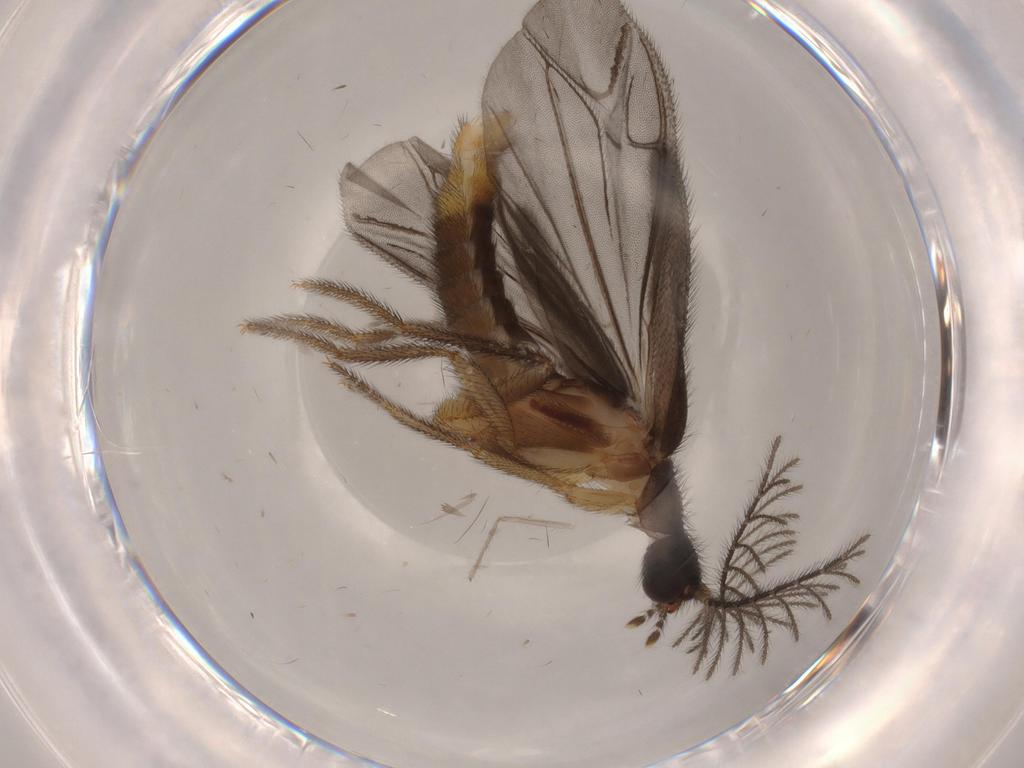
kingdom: Animalia
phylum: Arthropoda
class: Insecta
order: Coleoptera
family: Phengodidae
